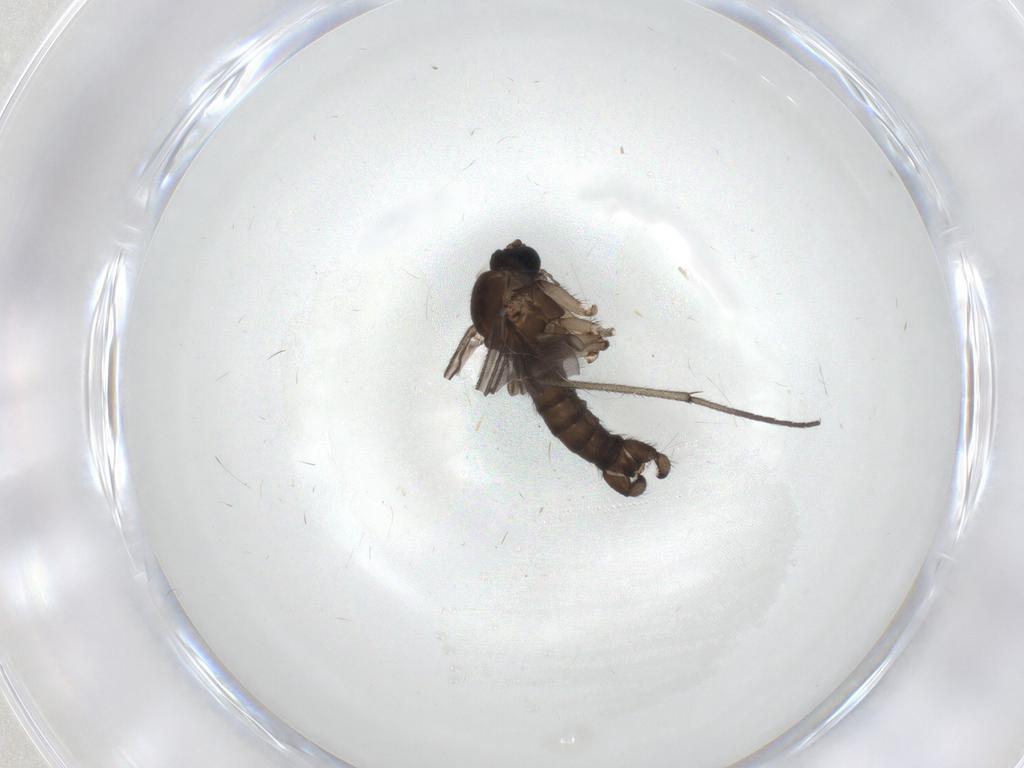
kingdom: Animalia
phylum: Arthropoda
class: Insecta
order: Diptera
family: Sciaridae
